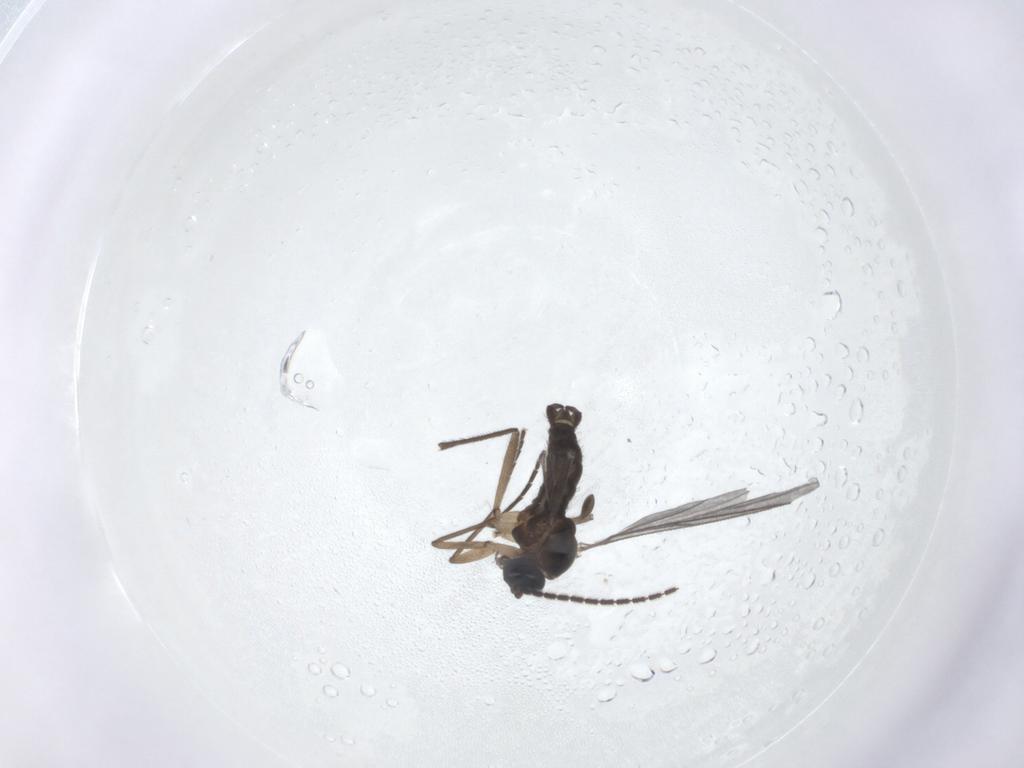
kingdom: Animalia
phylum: Arthropoda
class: Insecta
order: Diptera
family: Sciaridae
